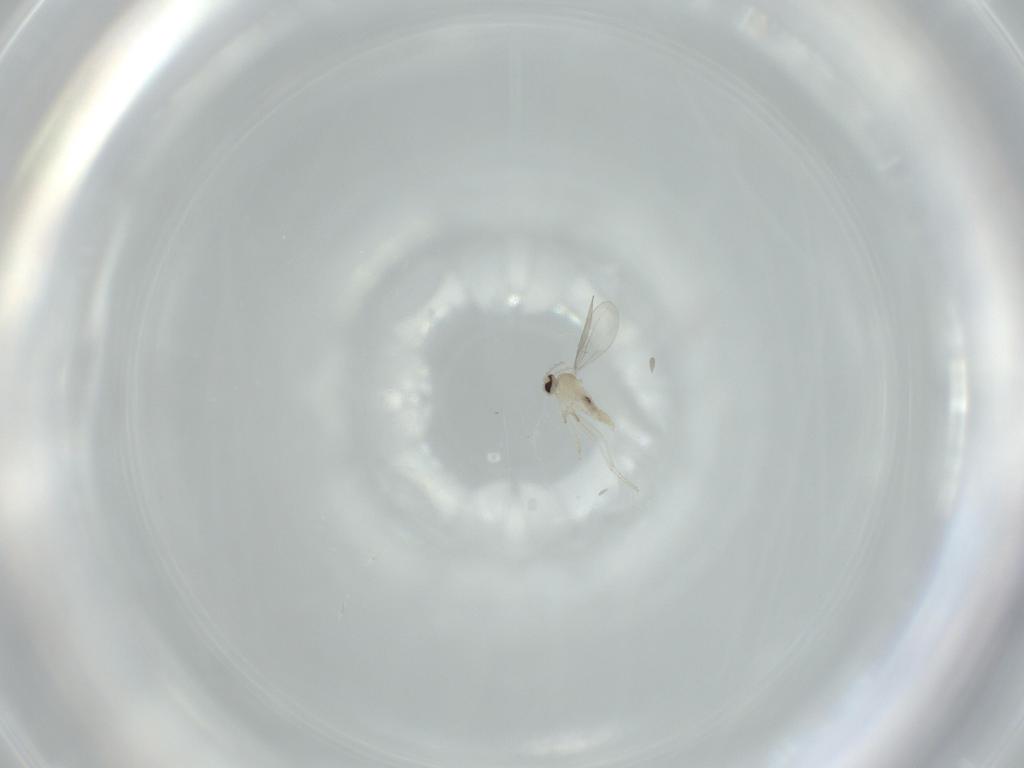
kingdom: Animalia
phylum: Arthropoda
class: Insecta
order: Diptera
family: Cecidomyiidae
